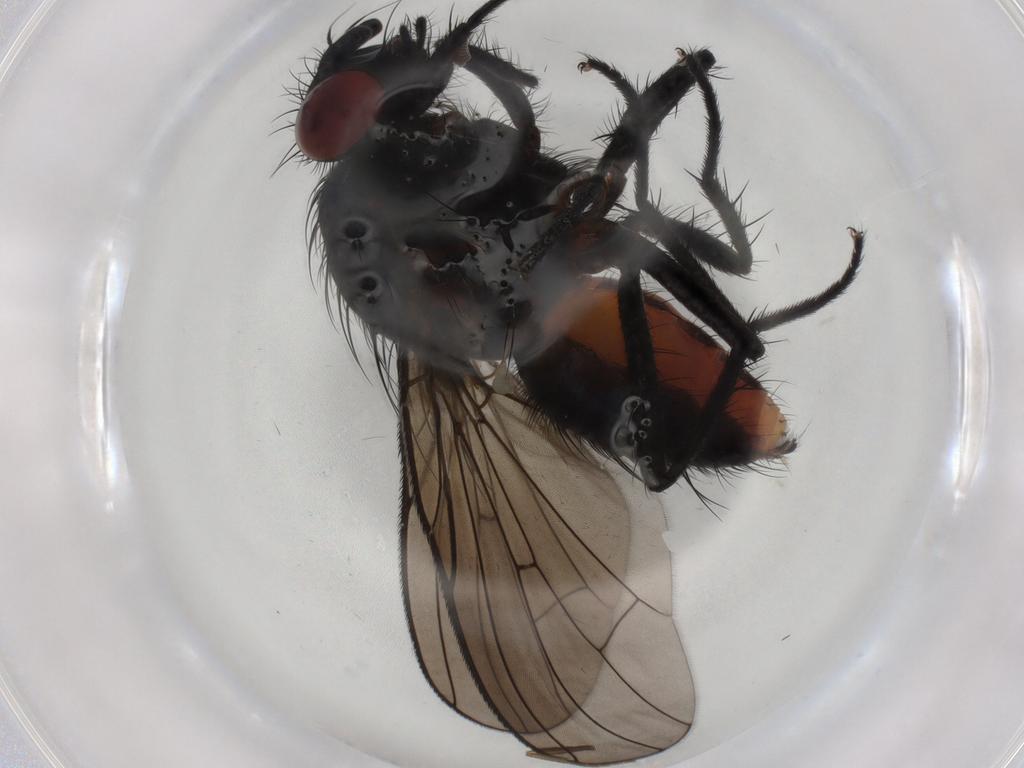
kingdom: Animalia
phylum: Arthropoda
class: Insecta
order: Diptera
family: Anthomyiidae
